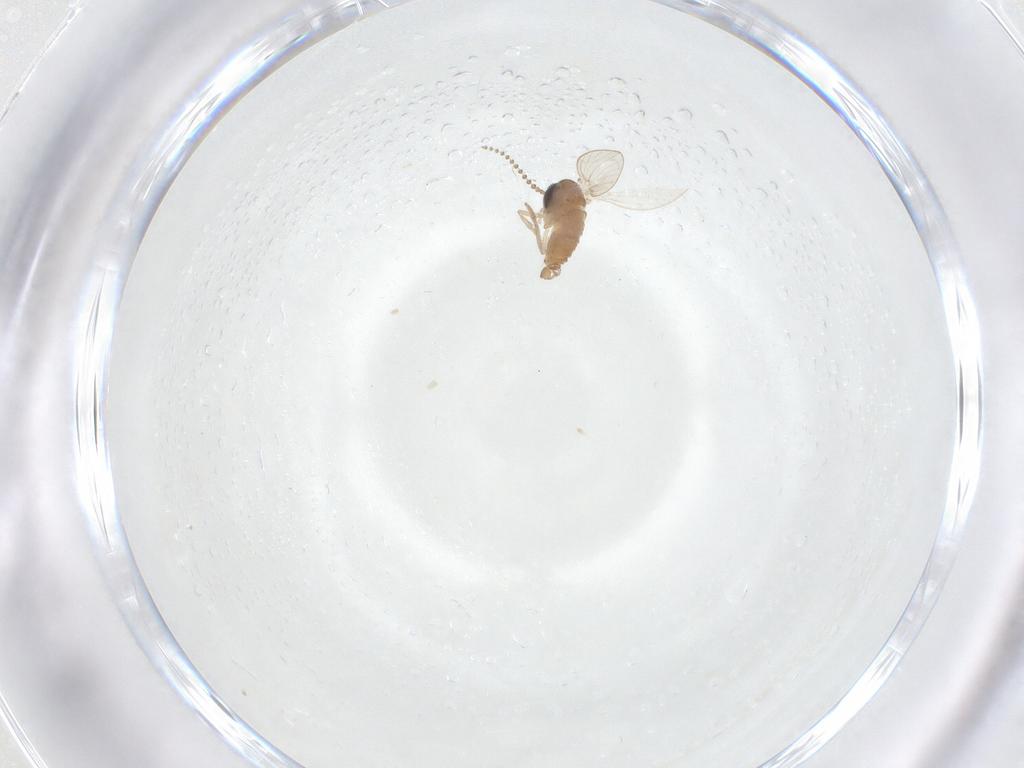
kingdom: Animalia
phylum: Arthropoda
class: Insecta
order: Diptera
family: Psychodidae
